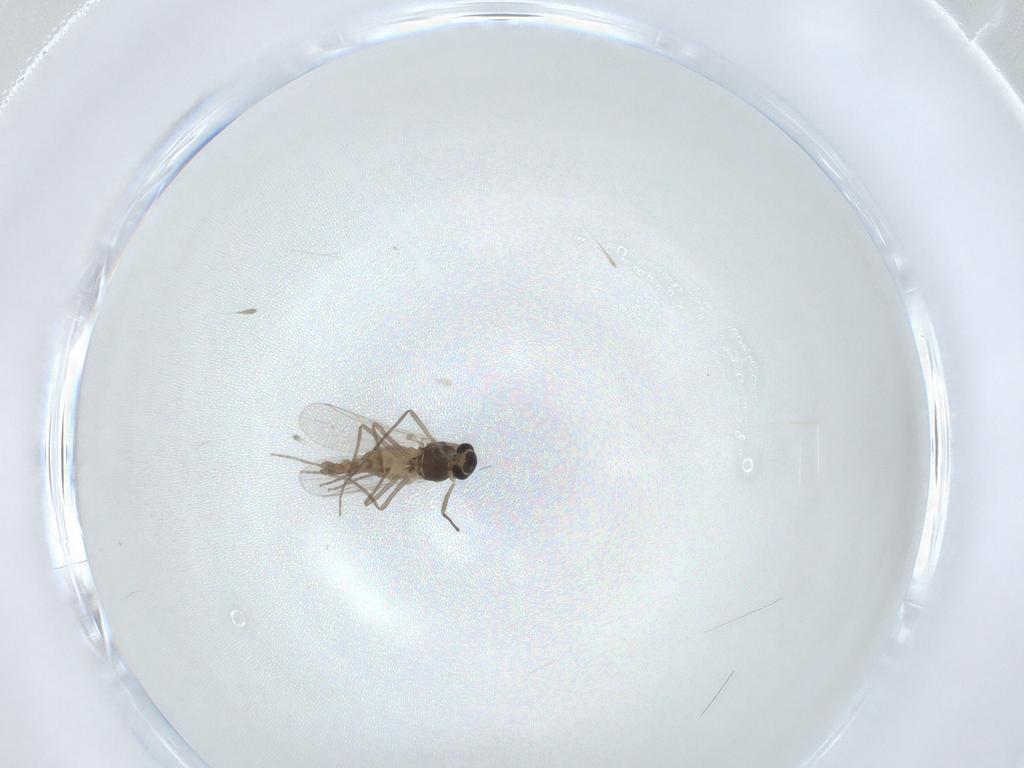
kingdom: Animalia
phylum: Arthropoda
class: Insecta
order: Diptera
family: Chironomidae
